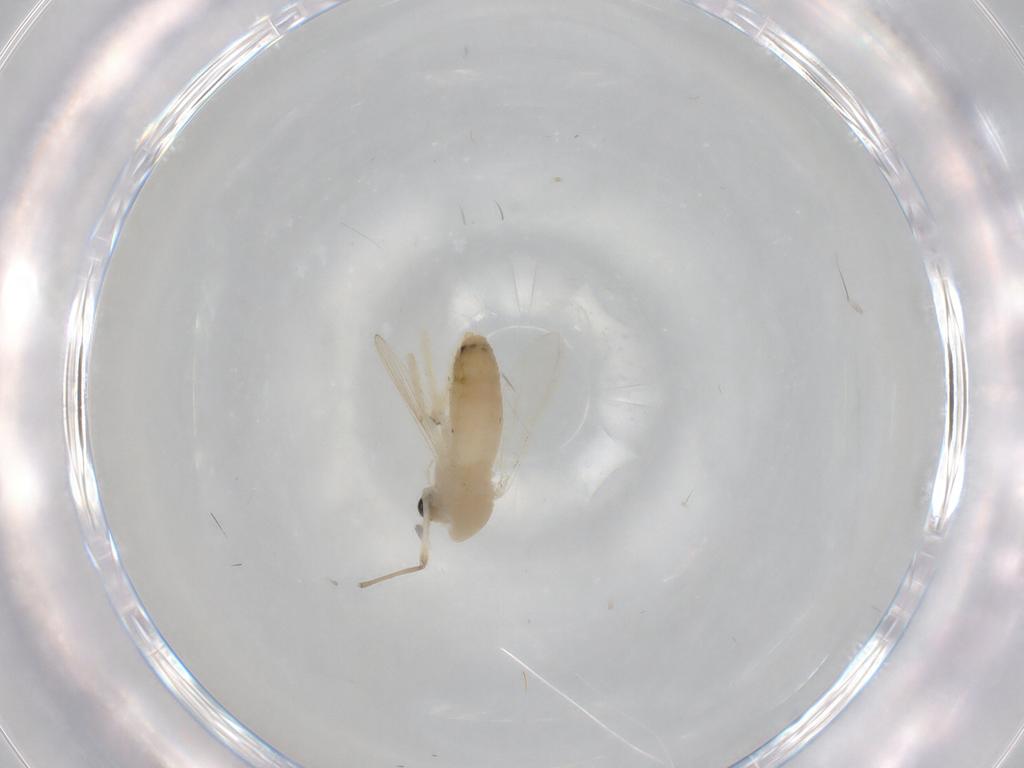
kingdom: Animalia
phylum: Arthropoda
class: Insecta
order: Diptera
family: Chironomidae
